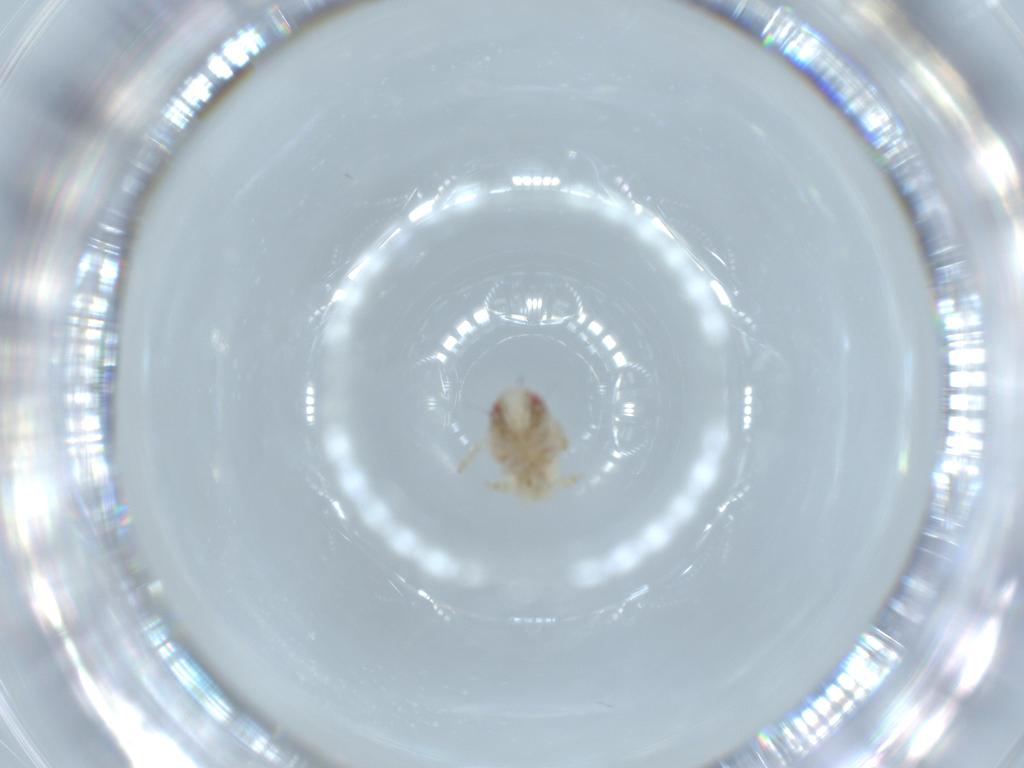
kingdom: Animalia
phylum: Arthropoda
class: Insecta
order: Hemiptera
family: Acanaloniidae
